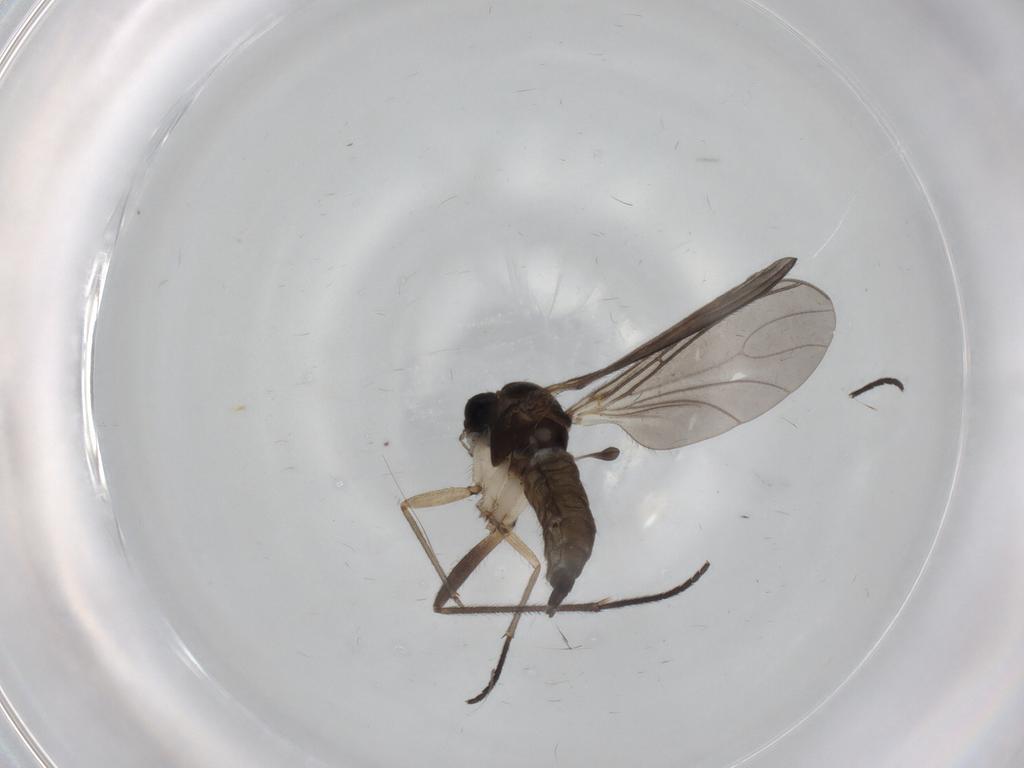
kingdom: Animalia
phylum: Arthropoda
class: Insecta
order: Diptera
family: Sciaridae
